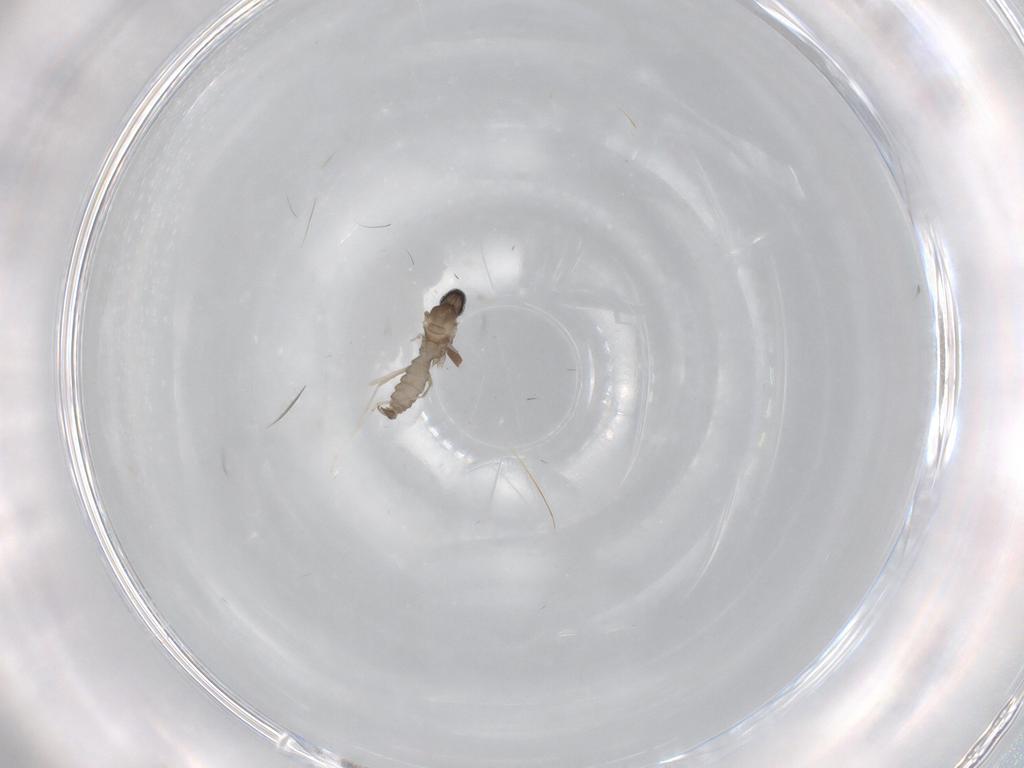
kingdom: Animalia
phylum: Arthropoda
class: Insecta
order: Diptera
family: Cecidomyiidae
